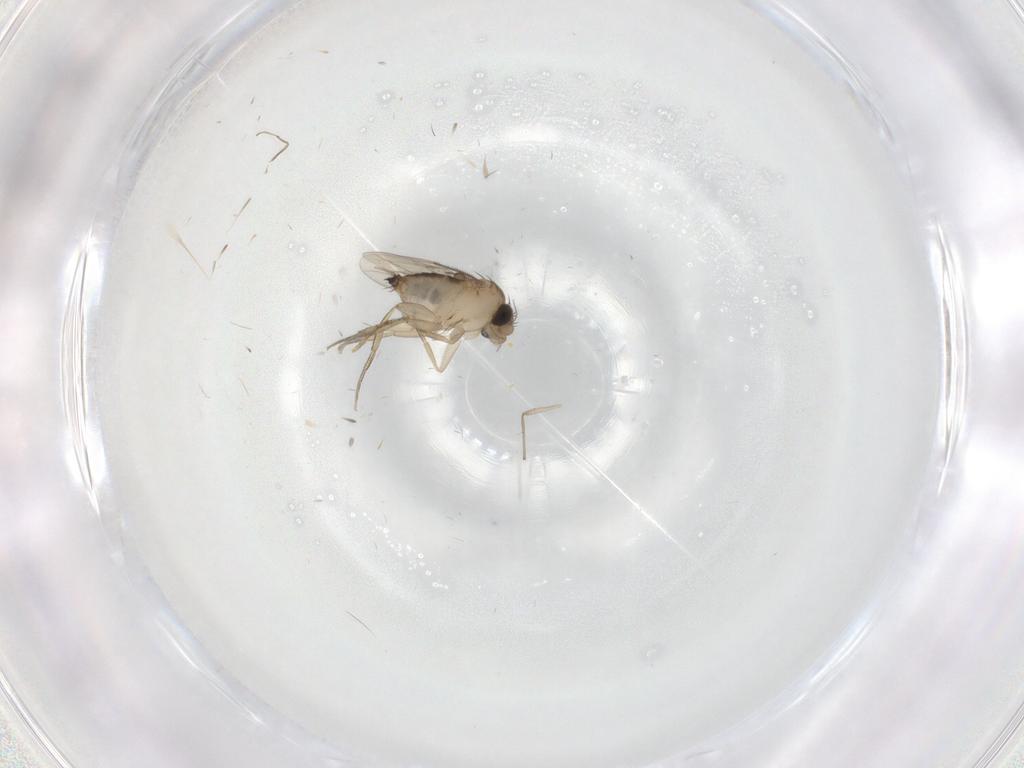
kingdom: Animalia
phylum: Arthropoda
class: Insecta
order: Diptera
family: Phoridae
